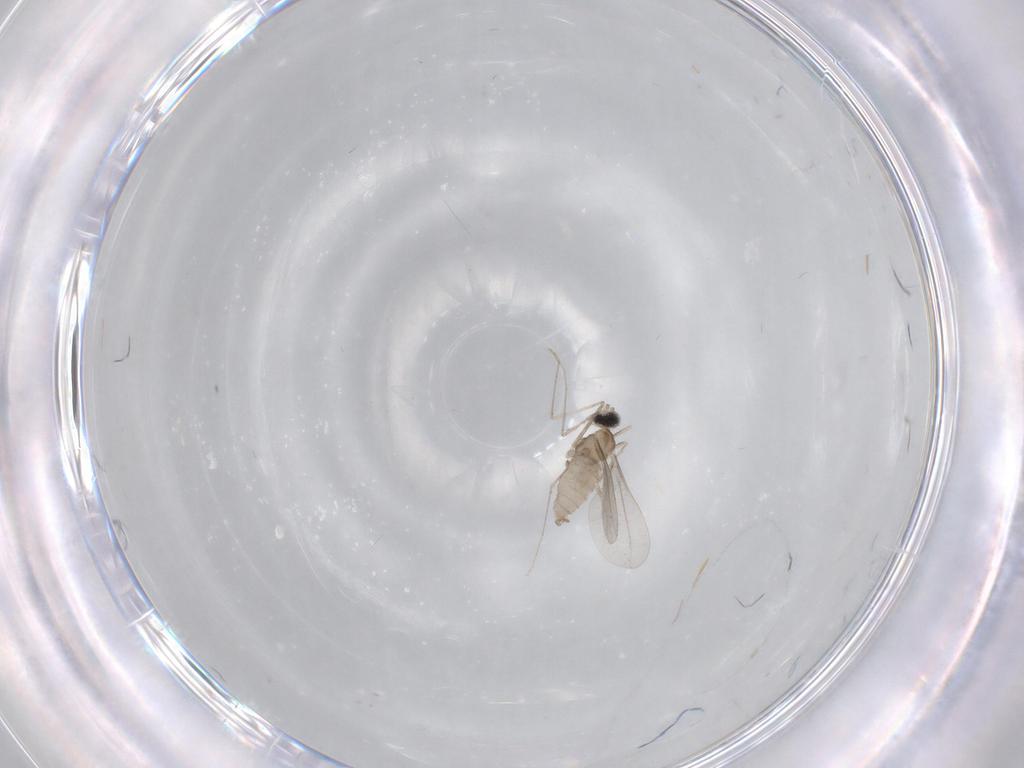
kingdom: Animalia
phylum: Arthropoda
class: Insecta
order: Diptera
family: Cecidomyiidae
